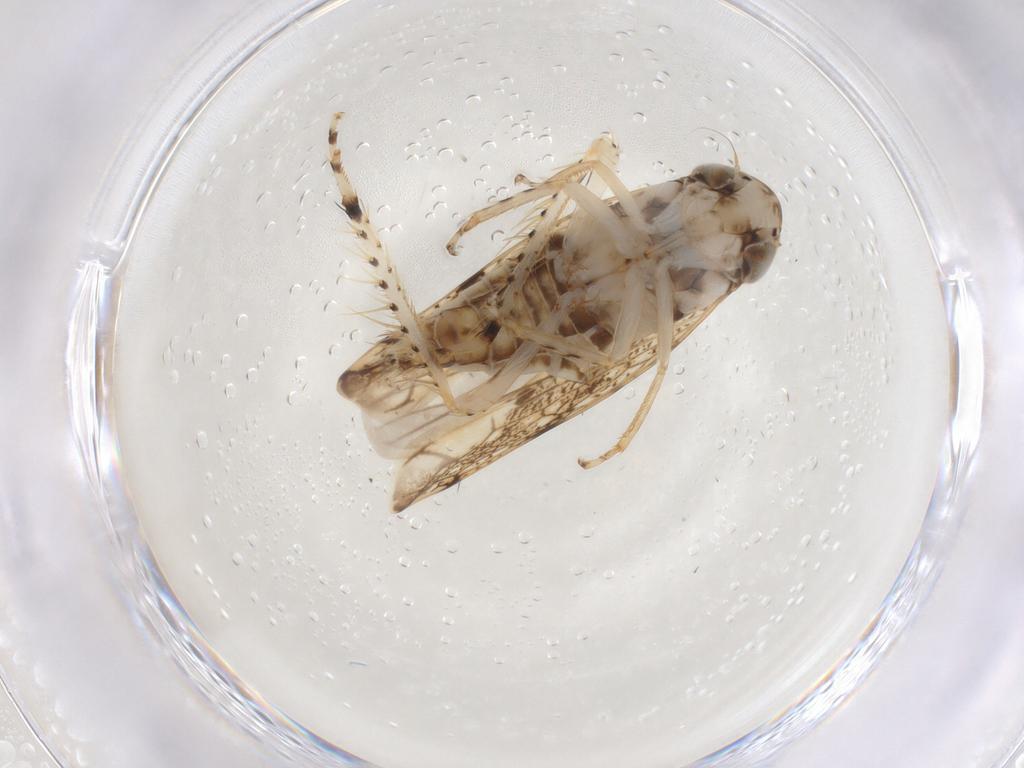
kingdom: Animalia
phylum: Arthropoda
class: Insecta
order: Hemiptera
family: Cicadellidae
